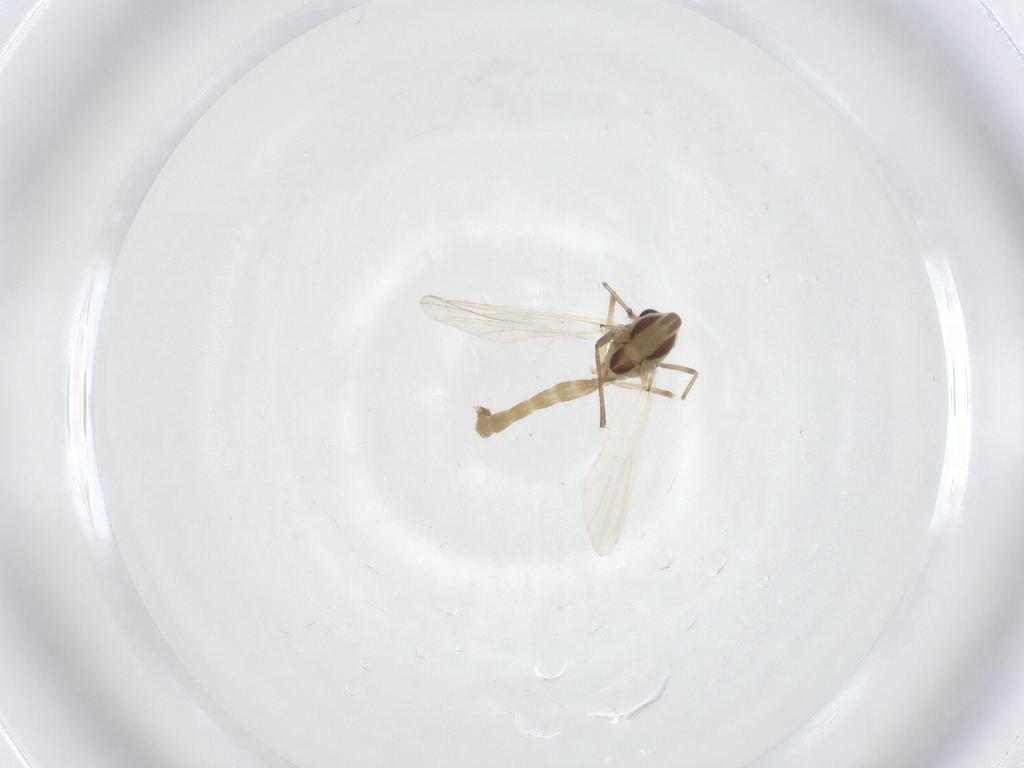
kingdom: Animalia
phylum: Arthropoda
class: Insecta
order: Diptera
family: Chironomidae
